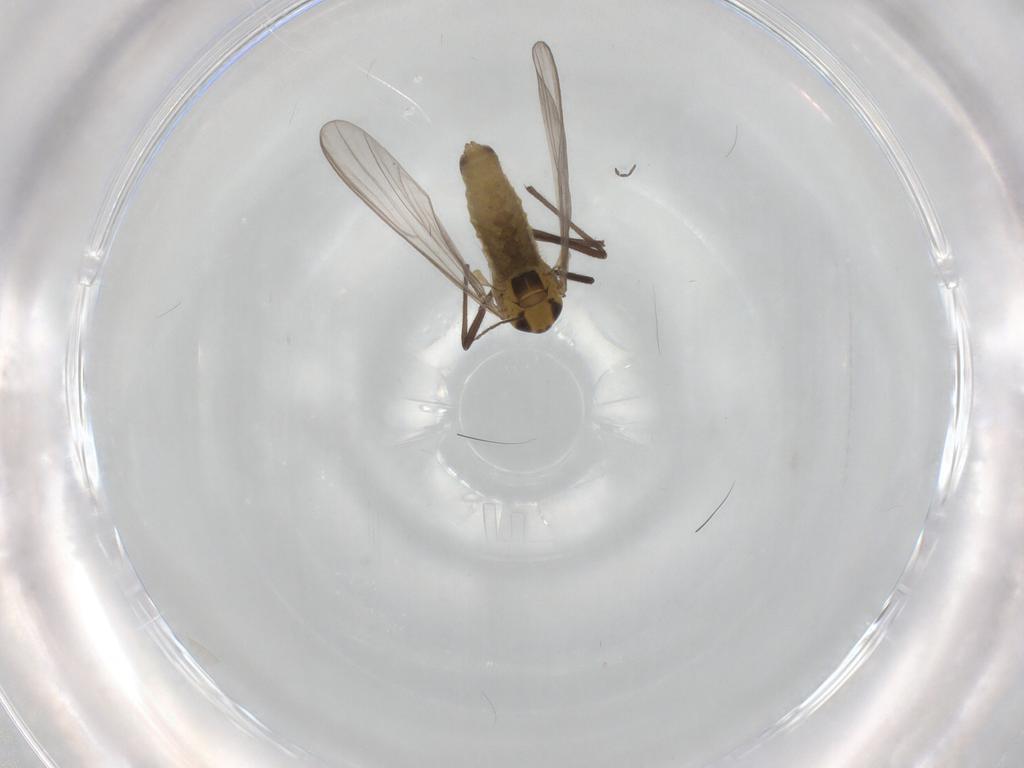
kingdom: Animalia
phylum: Arthropoda
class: Insecta
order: Diptera
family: Chironomidae
